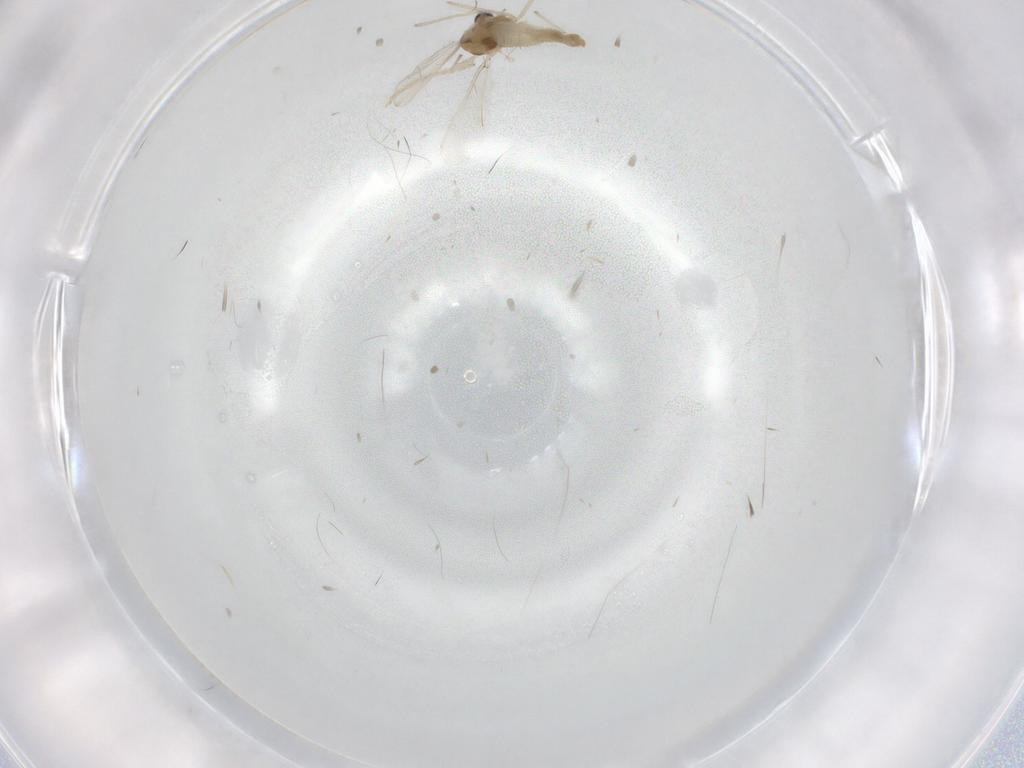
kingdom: Animalia
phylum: Arthropoda
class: Insecta
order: Diptera
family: Chironomidae
